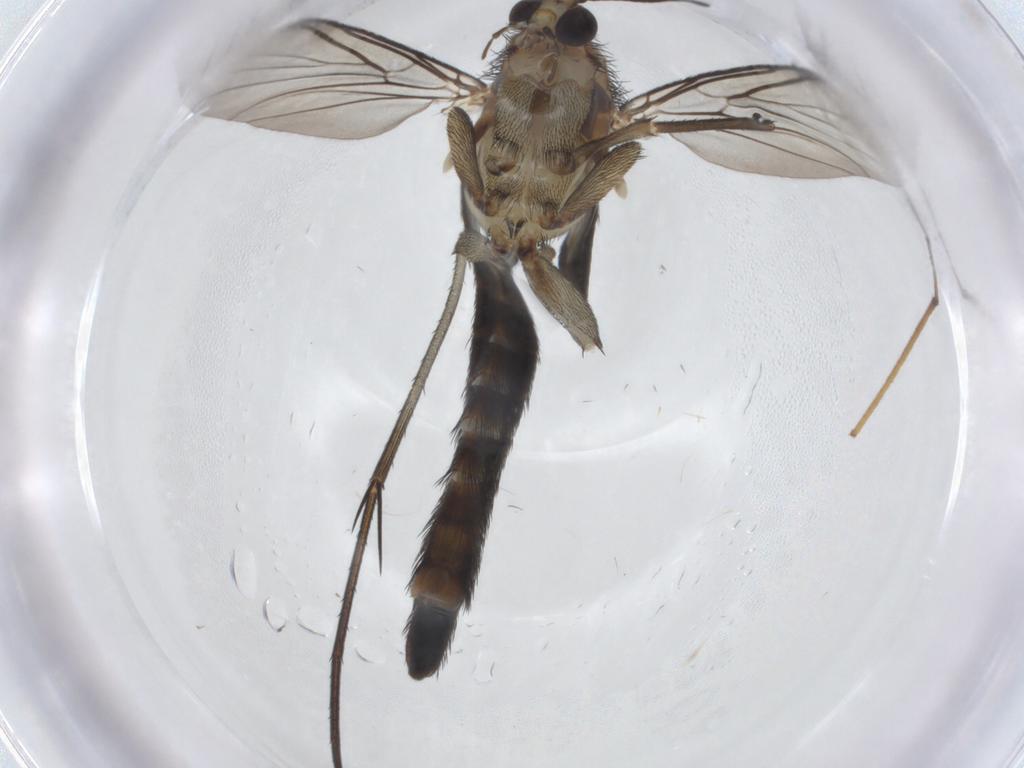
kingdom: Animalia
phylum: Arthropoda
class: Insecta
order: Diptera
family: Keroplatidae
